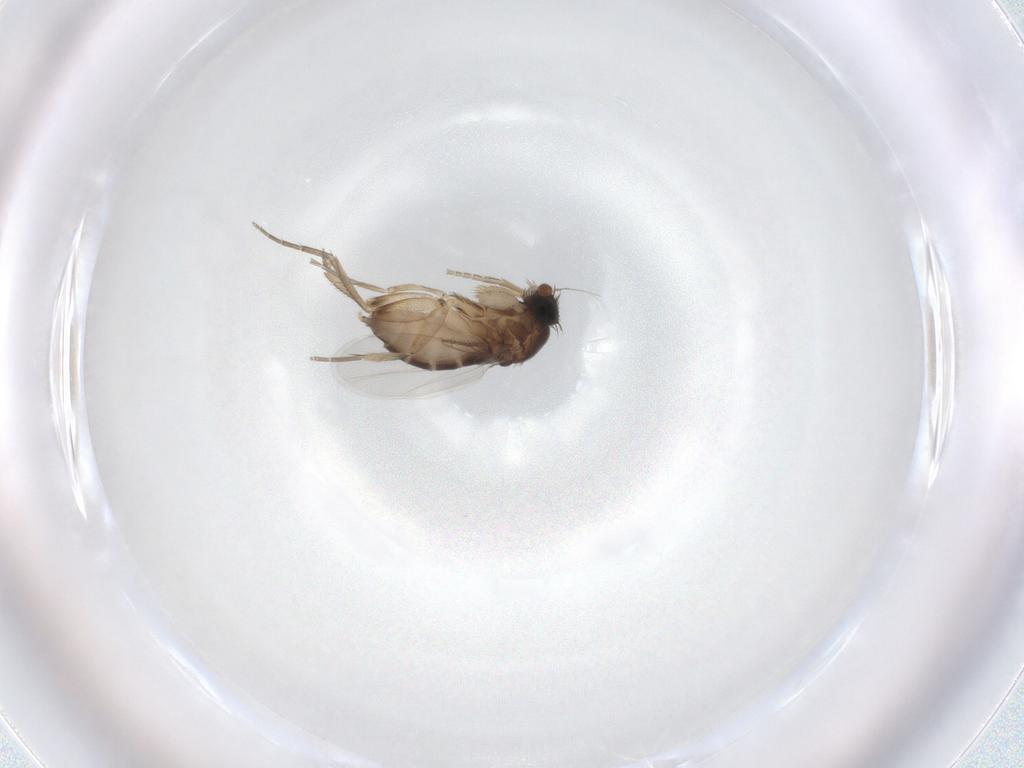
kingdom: Animalia
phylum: Arthropoda
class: Insecta
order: Diptera
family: Phoridae
